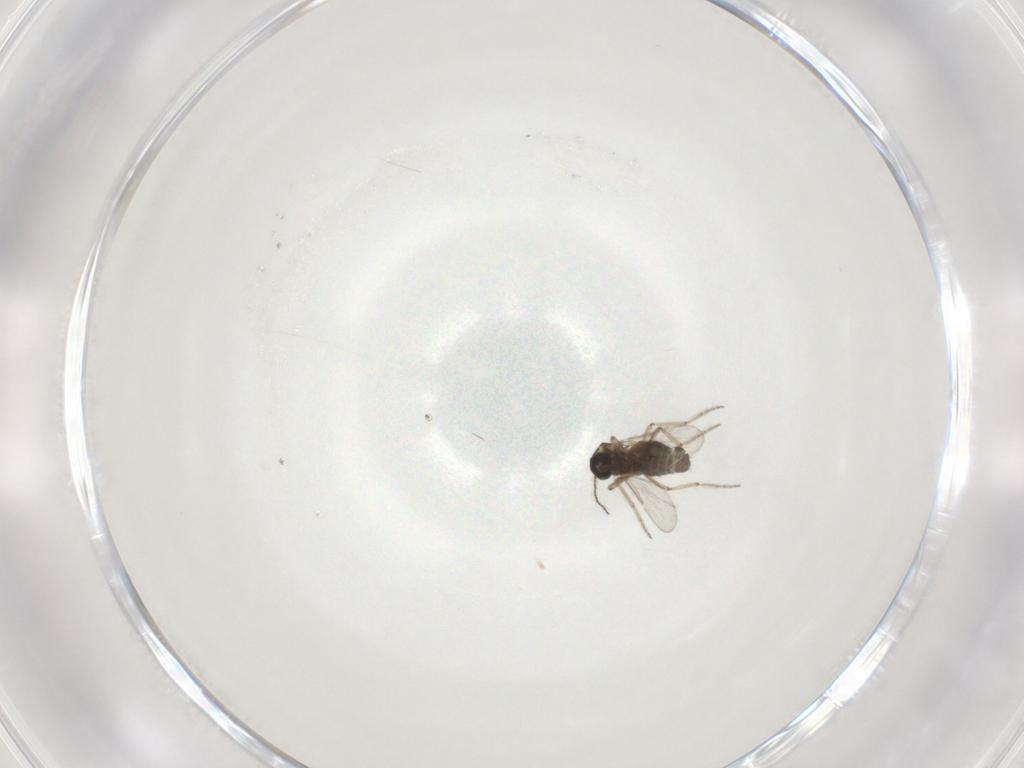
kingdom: Animalia
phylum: Arthropoda
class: Insecta
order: Diptera
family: Ceratopogonidae
